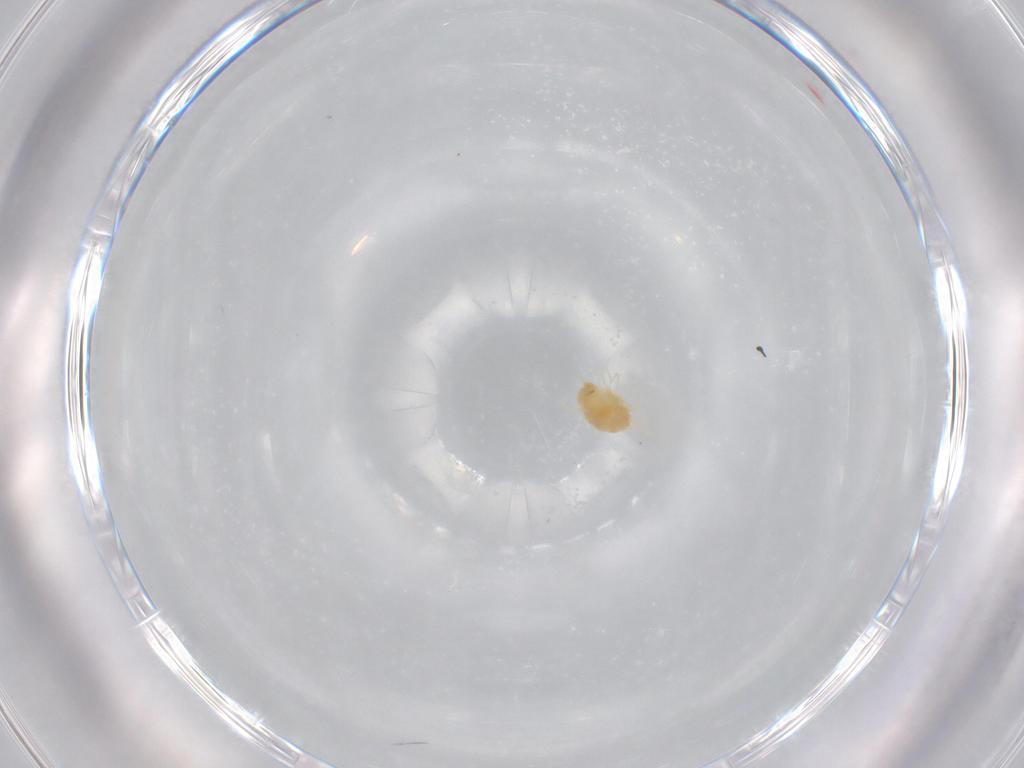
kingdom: Animalia
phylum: Arthropoda
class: Arachnida
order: Trombidiformes
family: Tetranychidae
